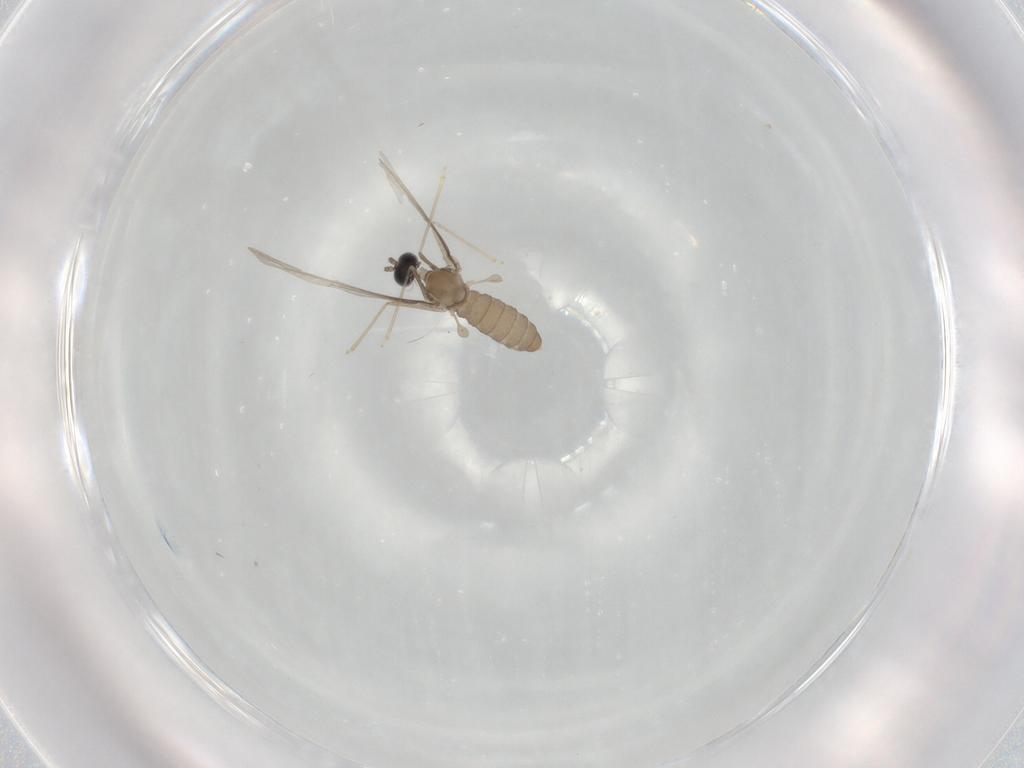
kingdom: Animalia
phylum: Arthropoda
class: Insecta
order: Diptera
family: Cecidomyiidae
